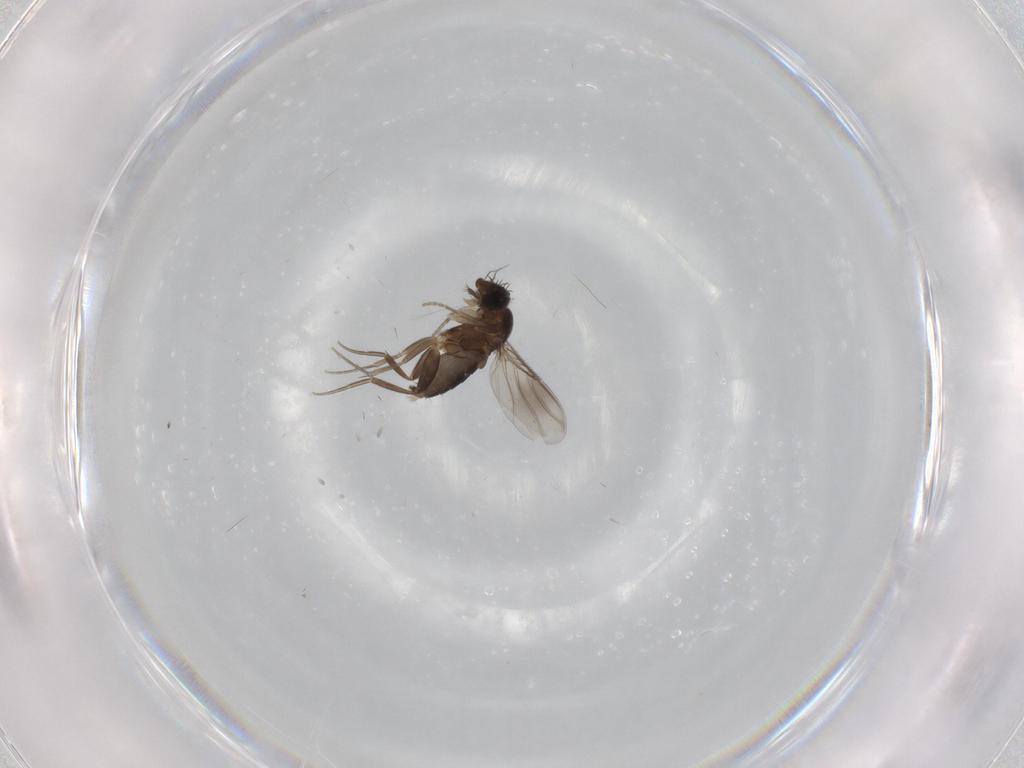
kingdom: Animalia
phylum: Arthropoda
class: Insecta
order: Diptera
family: Phoridae
